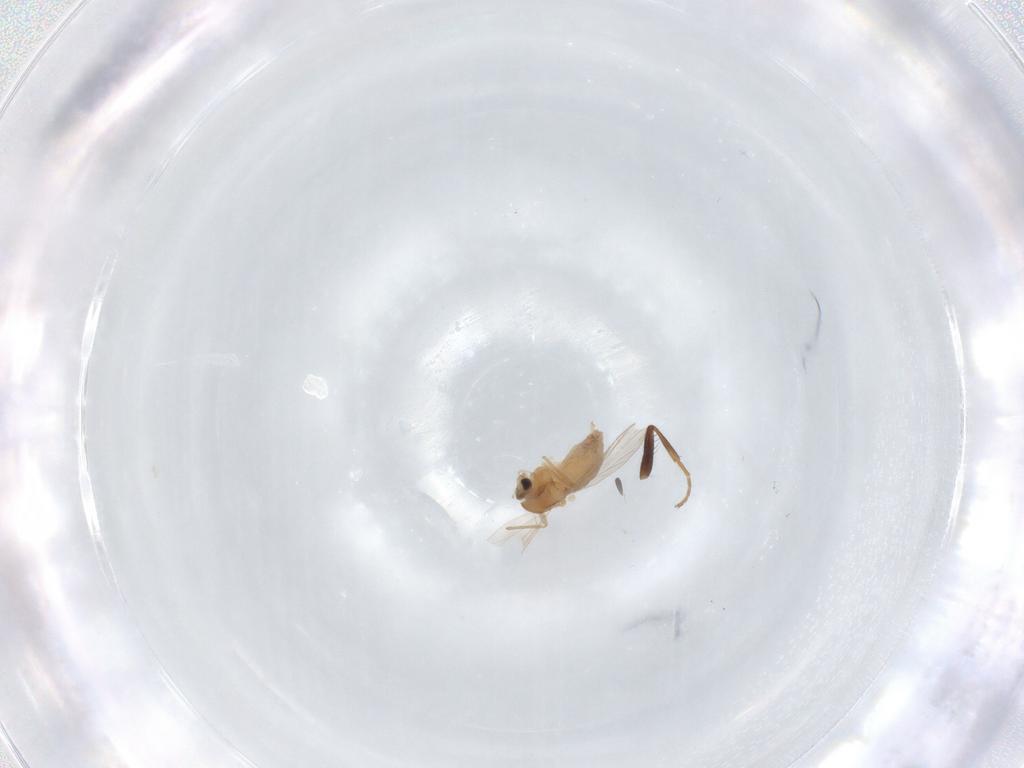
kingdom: Animalia
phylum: Arthropoda
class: Insecta
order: Diptera
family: Chironomidae
